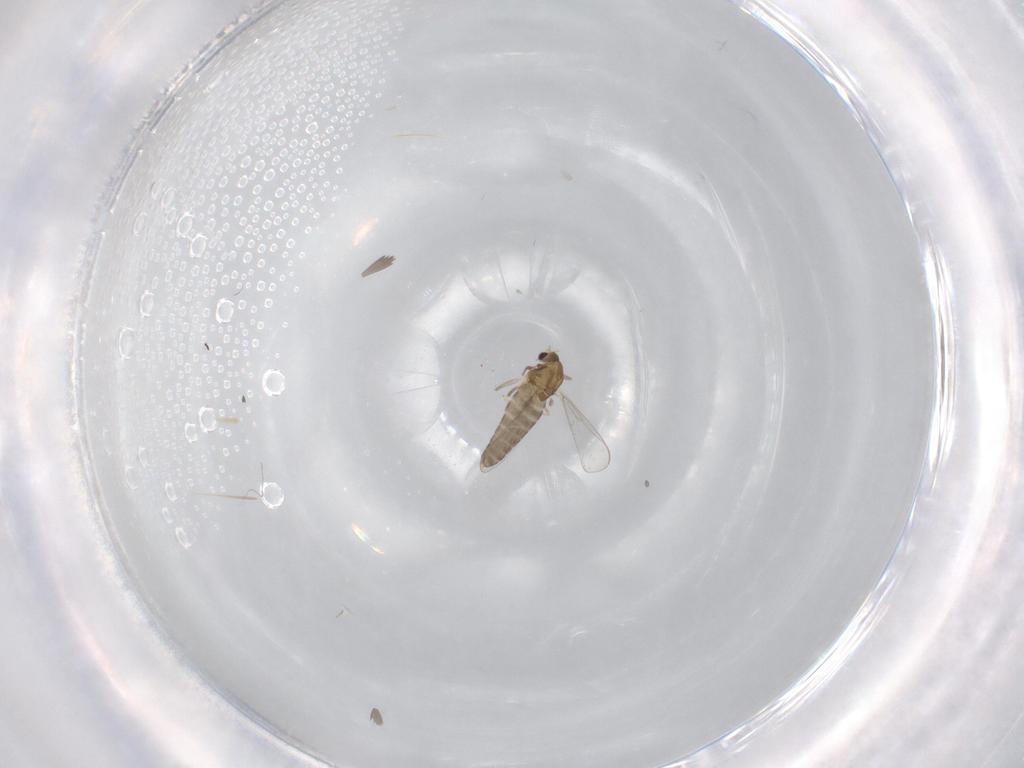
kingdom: Animalia
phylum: Arthropoda
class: Insecta
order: Diptera
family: Chironomidae
